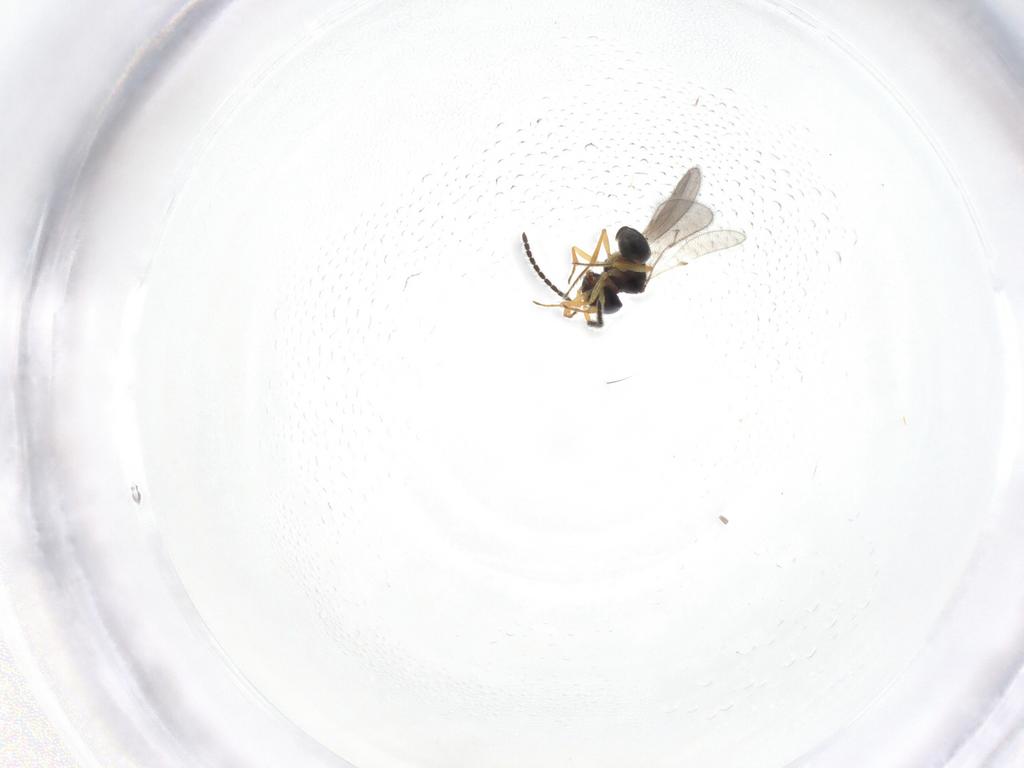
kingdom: Animalia
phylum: Arthropoda
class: Insecta
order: Hymenoptera
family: Scelionidae
